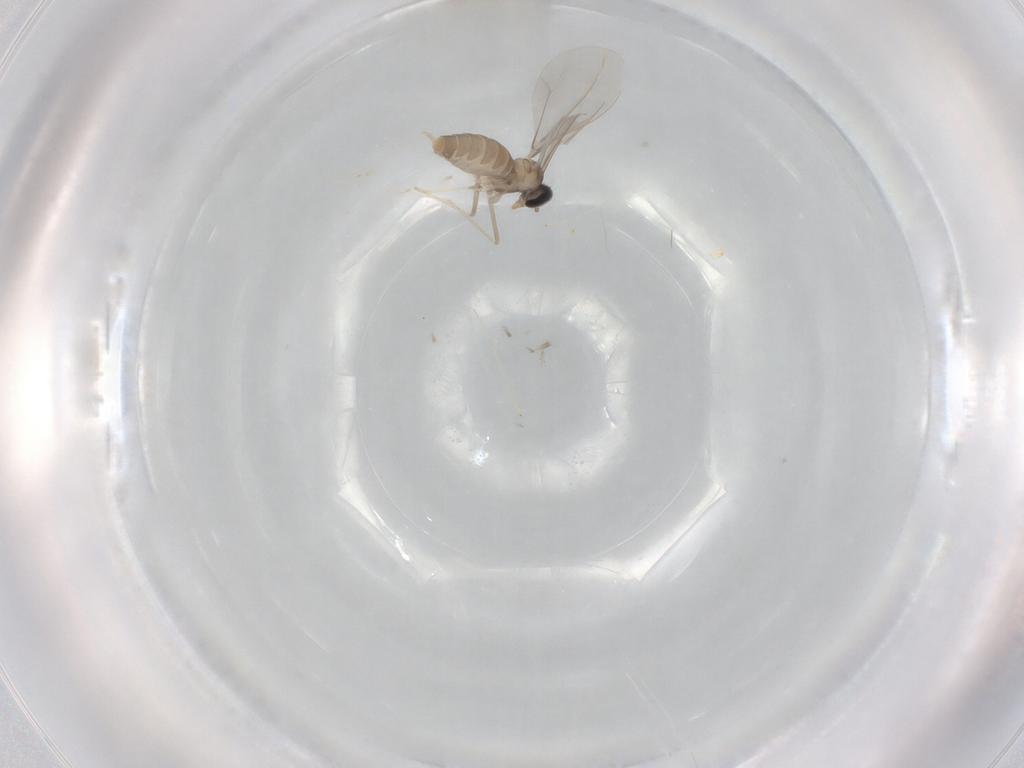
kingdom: Animalia
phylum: Arthropoda
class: Insecta
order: Diptera
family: Cecidomyiidae
